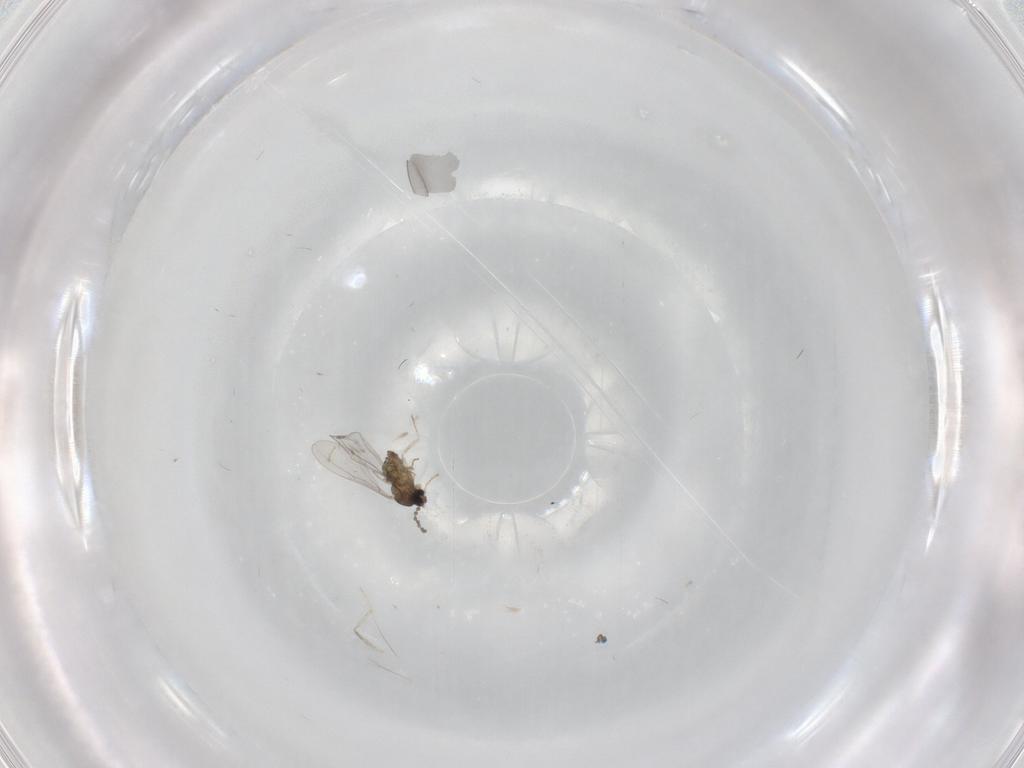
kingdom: Animalia
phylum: Arthropoda
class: Insecta
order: Diptera
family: Cecidomyiidae
